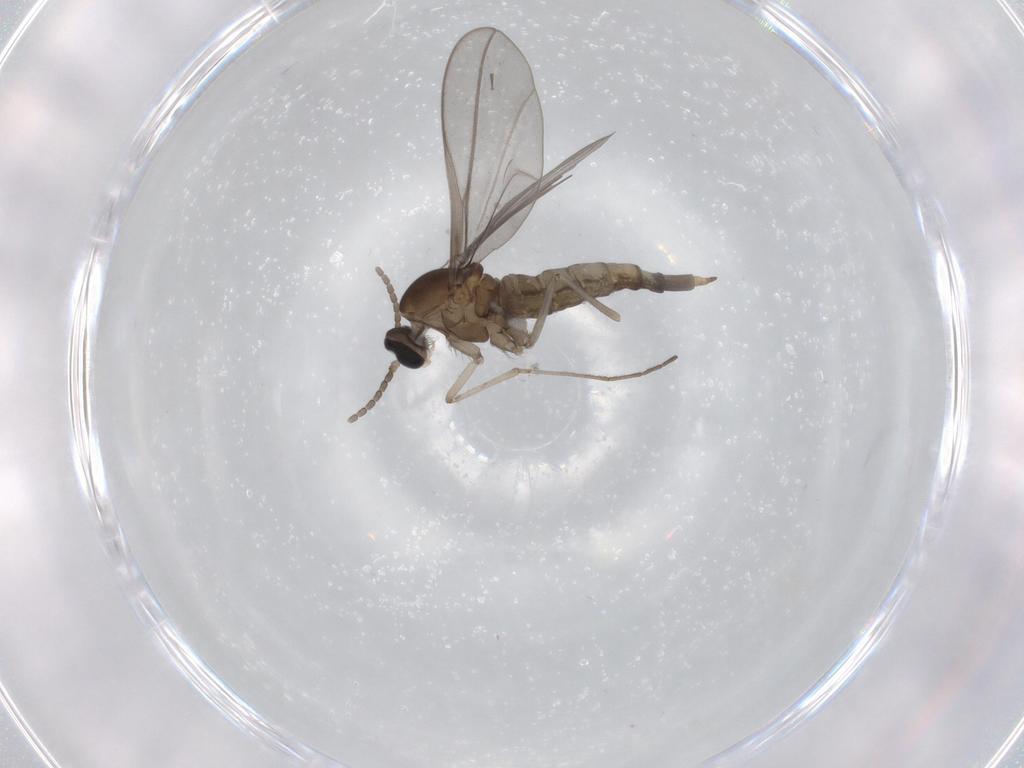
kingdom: Animalia
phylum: Arthropoda
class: Insecta
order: Diptera
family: Cecidomyiidae
